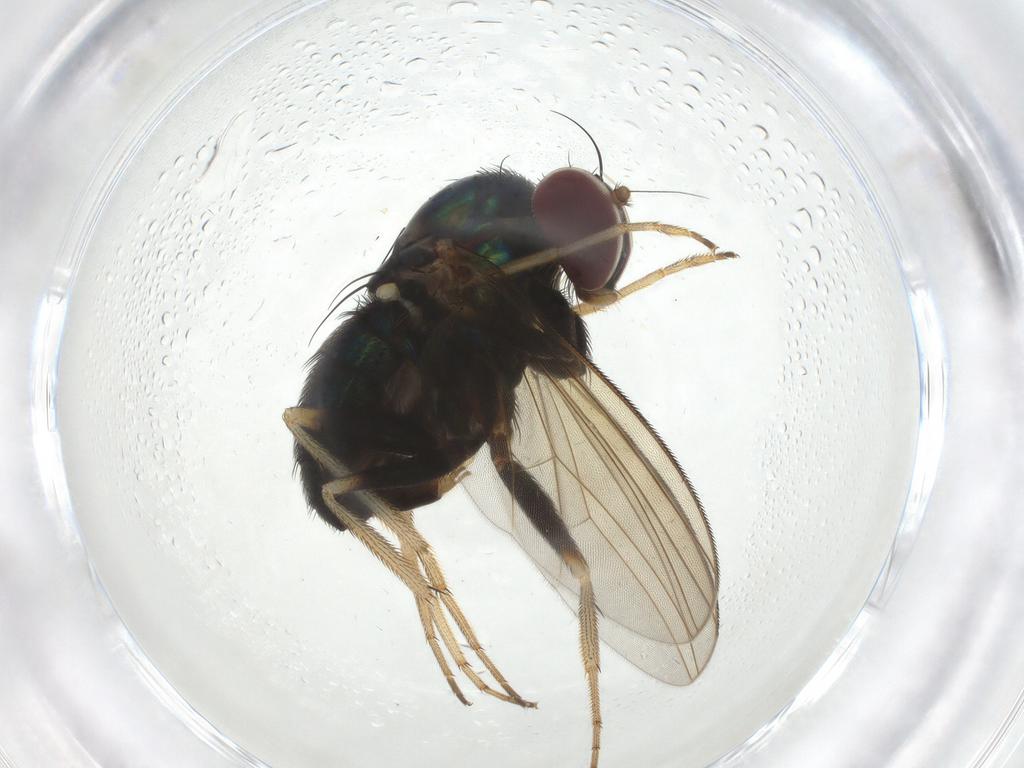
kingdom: Animalia
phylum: Arthropoda
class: Insecta
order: Diptera
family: Dolichopodidae
